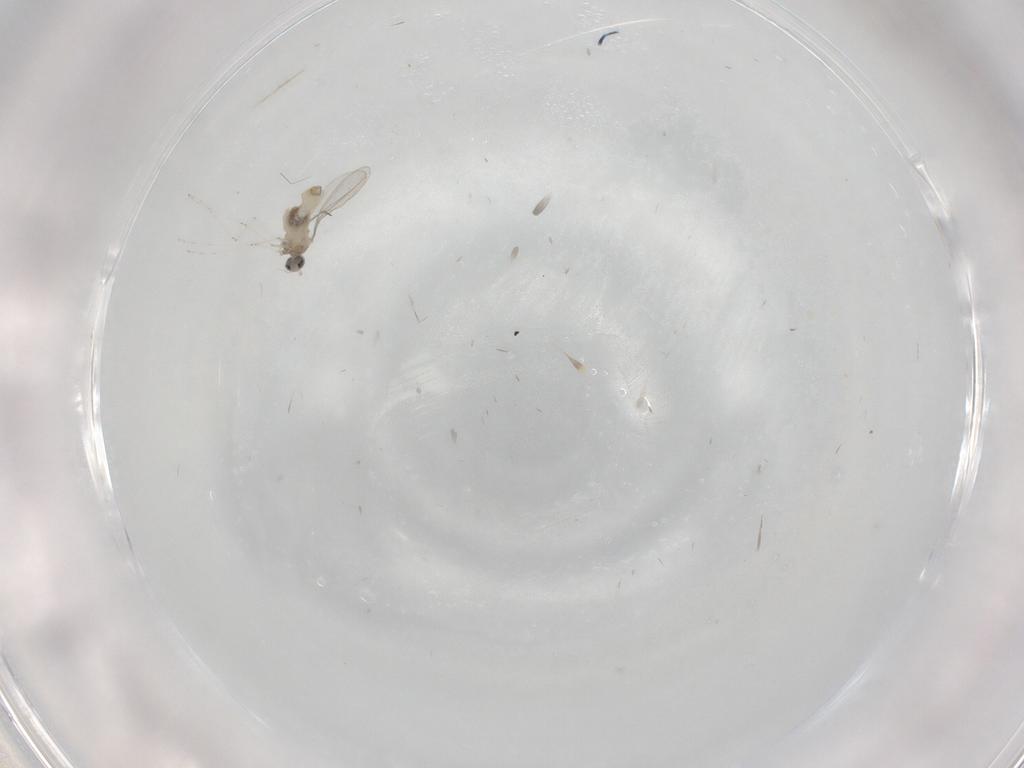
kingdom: Animalia
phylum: Arthropoda
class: Insecta
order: Diptera
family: Cecidomyiidae
